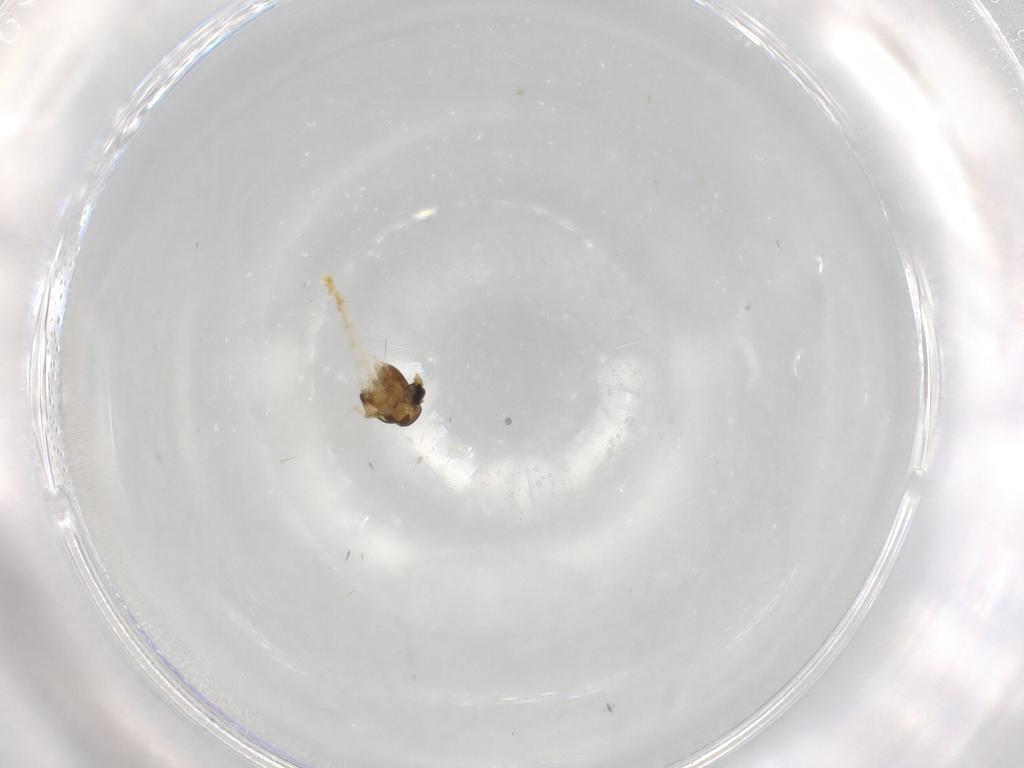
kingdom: Animalia
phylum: Arthropoda
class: Insecta
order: Diptera
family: Chironomidae
